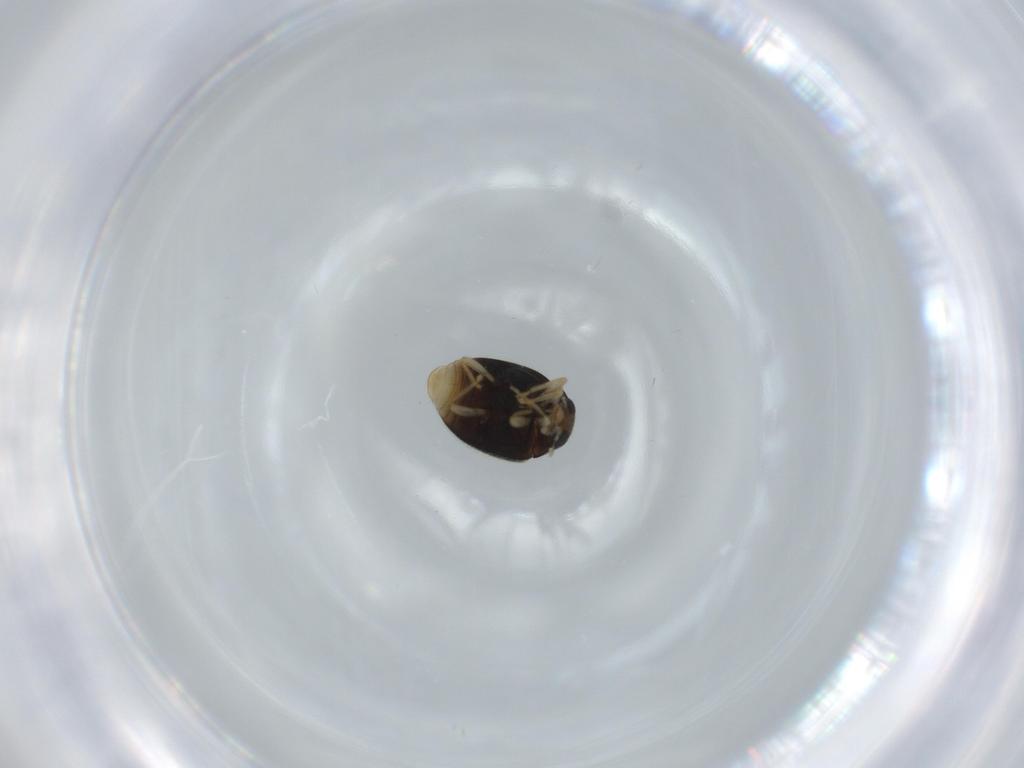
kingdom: Animalia
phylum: Arthropoda
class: Insecta
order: Coleoptera
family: Coccinellidae
